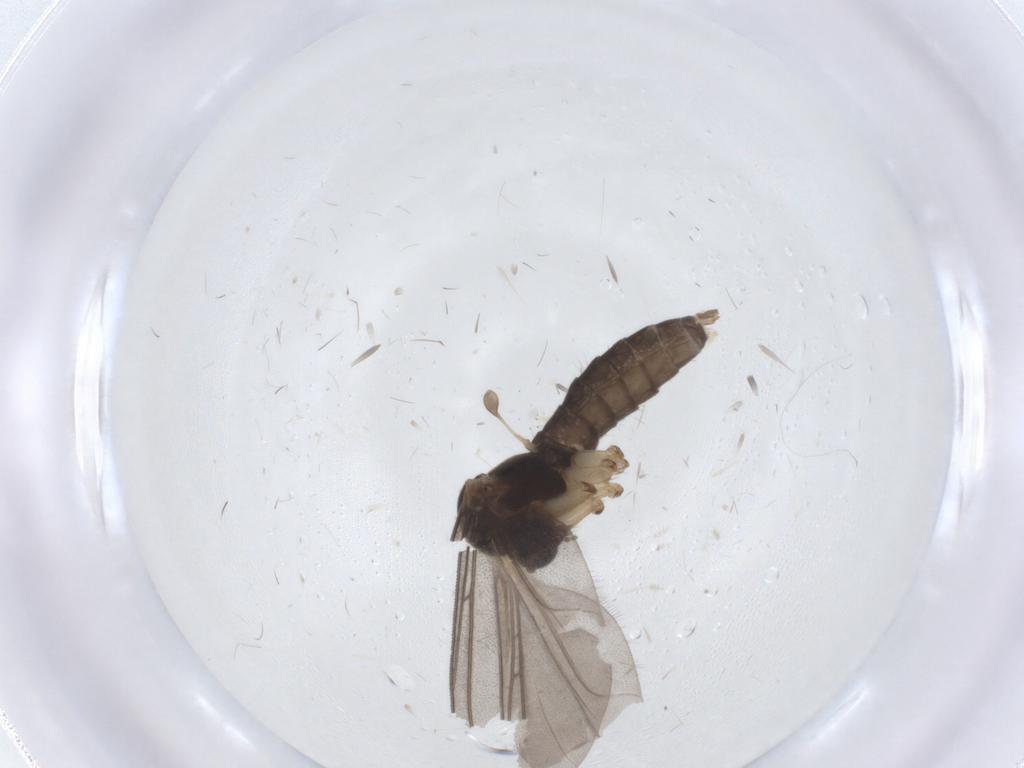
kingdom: Animalia
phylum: Arthropoda
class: Insecta
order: Diptera
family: Mycetophilidae
